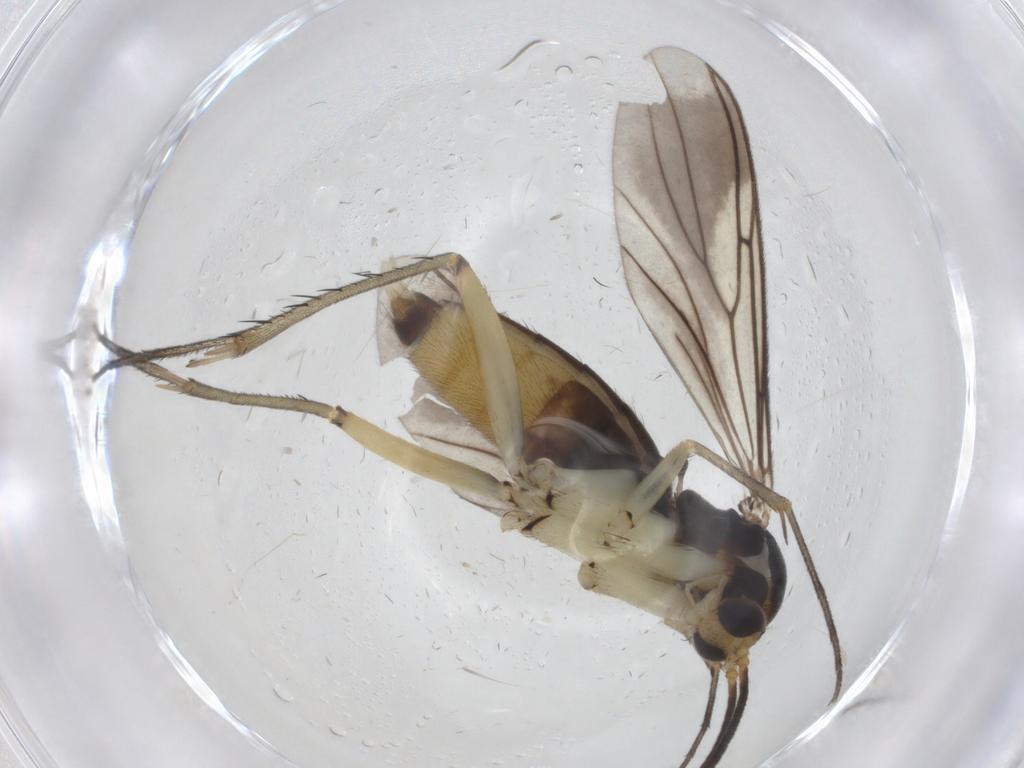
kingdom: Animalia
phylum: Arthropoda
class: Insecta
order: Diptera
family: Mycetophilidae
